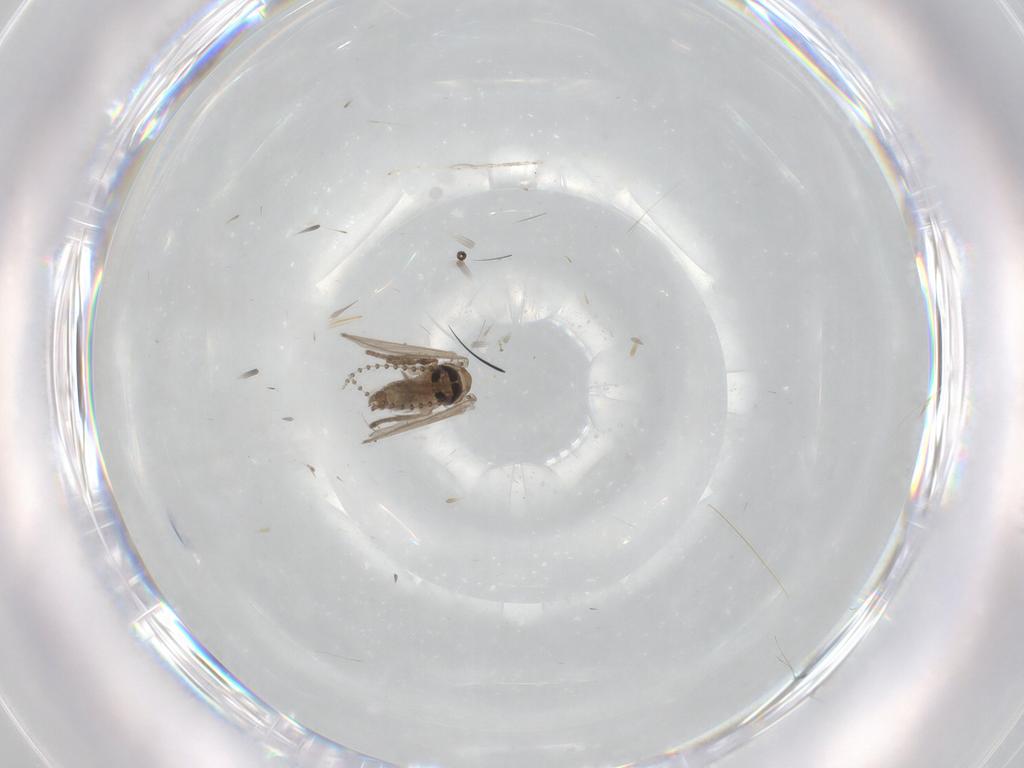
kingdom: Animalia
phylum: Arthropoda
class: Insecta
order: Diptera
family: Psychodidae
